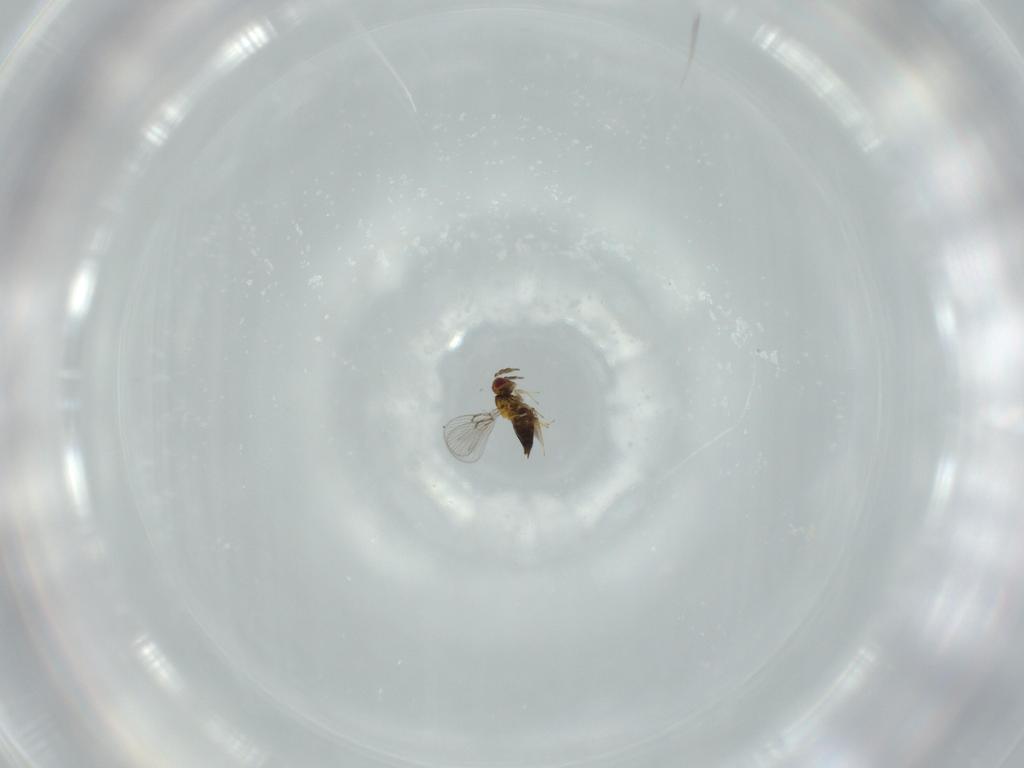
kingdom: Animalia
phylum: Arthropoda
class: Insecta
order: Hymenoptera
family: Trichogrammatidae
